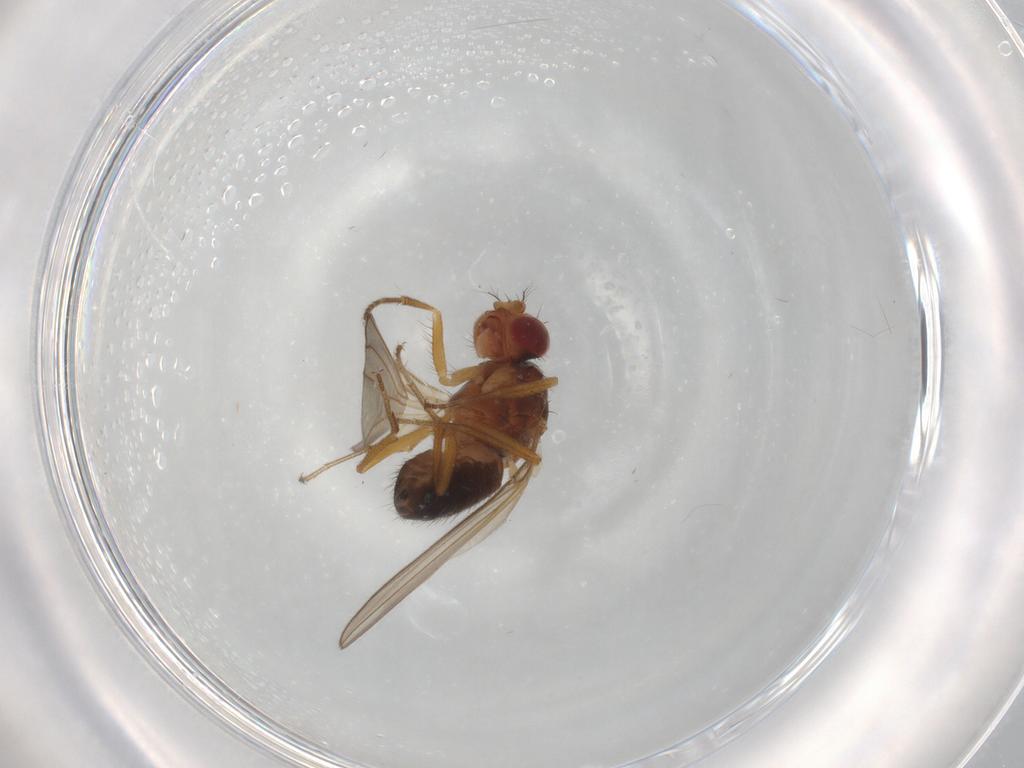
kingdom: Animalia
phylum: Arthropoda
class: Insecta
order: Diptera
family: Drosophilidae
